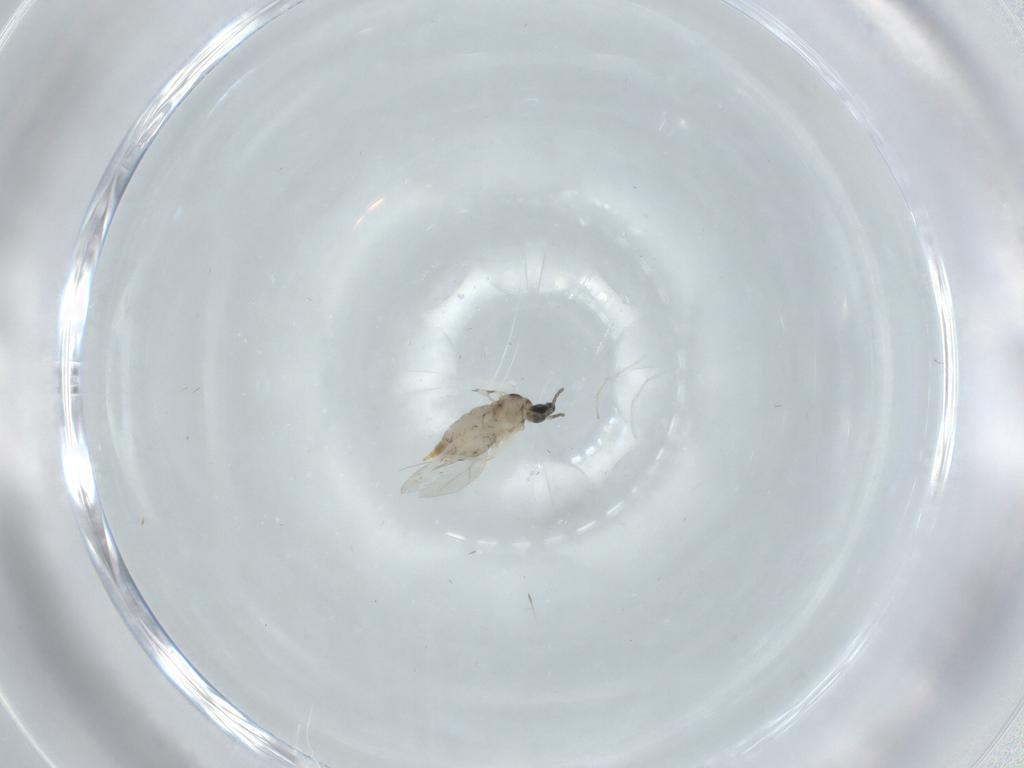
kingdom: Animalia
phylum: Arthropoda
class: Insecta
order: Diptera
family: Cecidomyiidae
